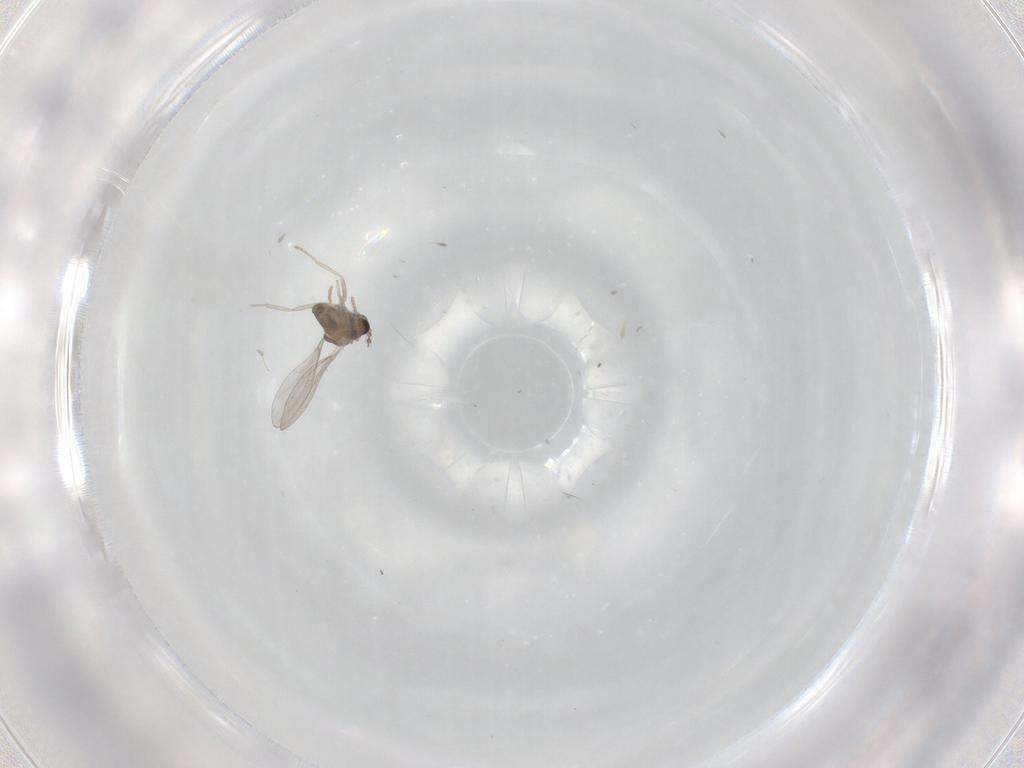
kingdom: Animalia
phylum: Arthropoda
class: Insecta
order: Diptera
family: Cecidomyiidae
